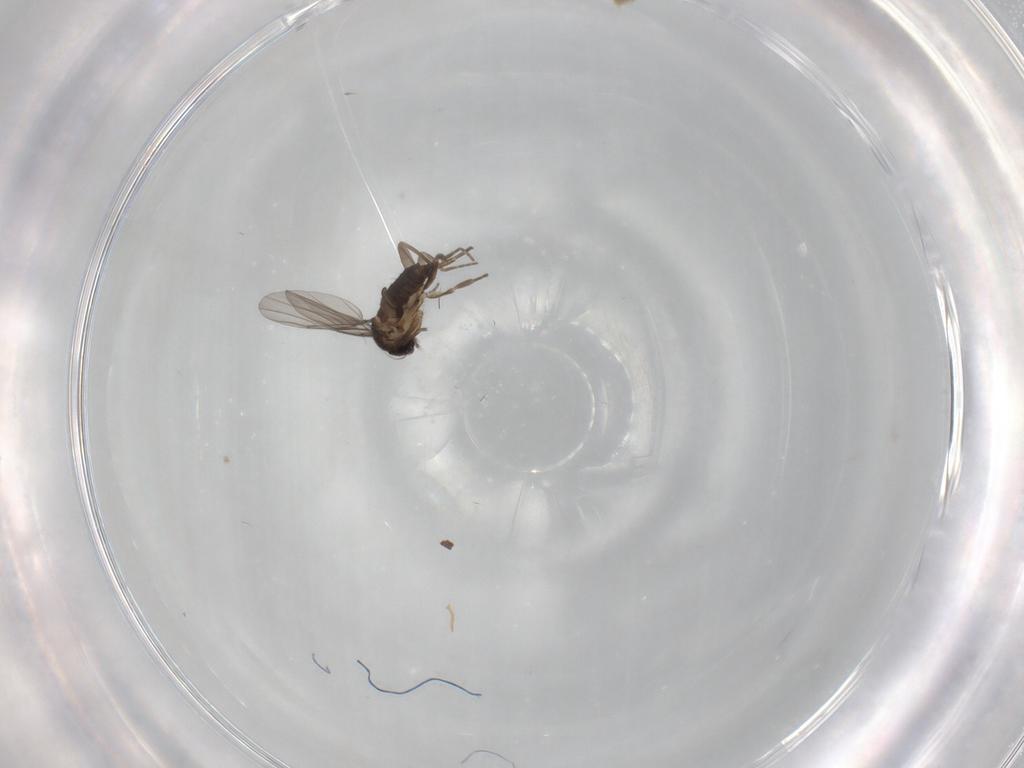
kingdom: Animalia
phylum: Arthropoda
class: Insecta
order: Diptera
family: Phoridae
